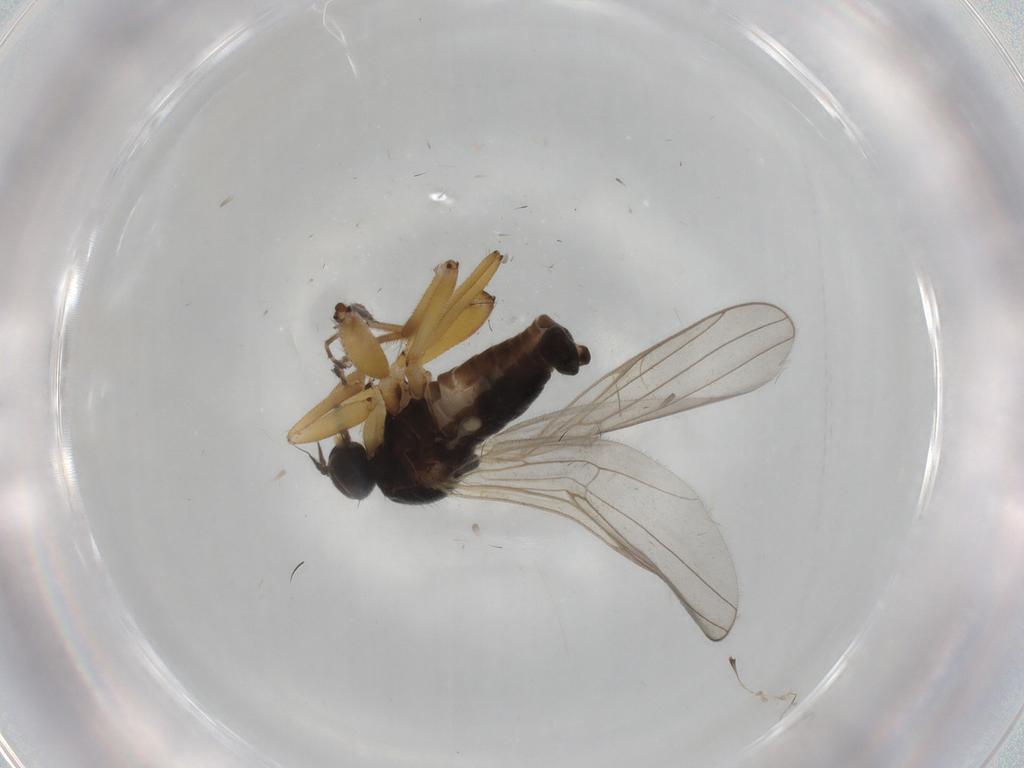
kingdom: Animalia
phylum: Arthropoda
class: Insecta
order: Diptera
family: Hybotidae
